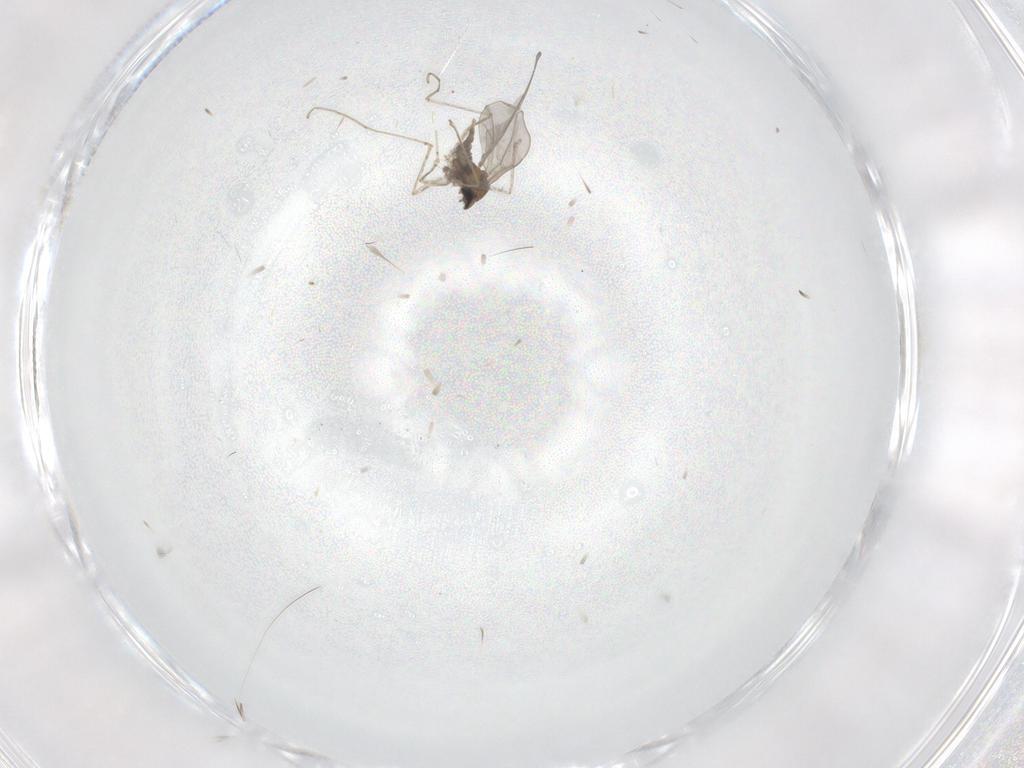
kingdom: Animalia
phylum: Arthropoda
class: Insecta
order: Diptera
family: Cecidomyiidae
